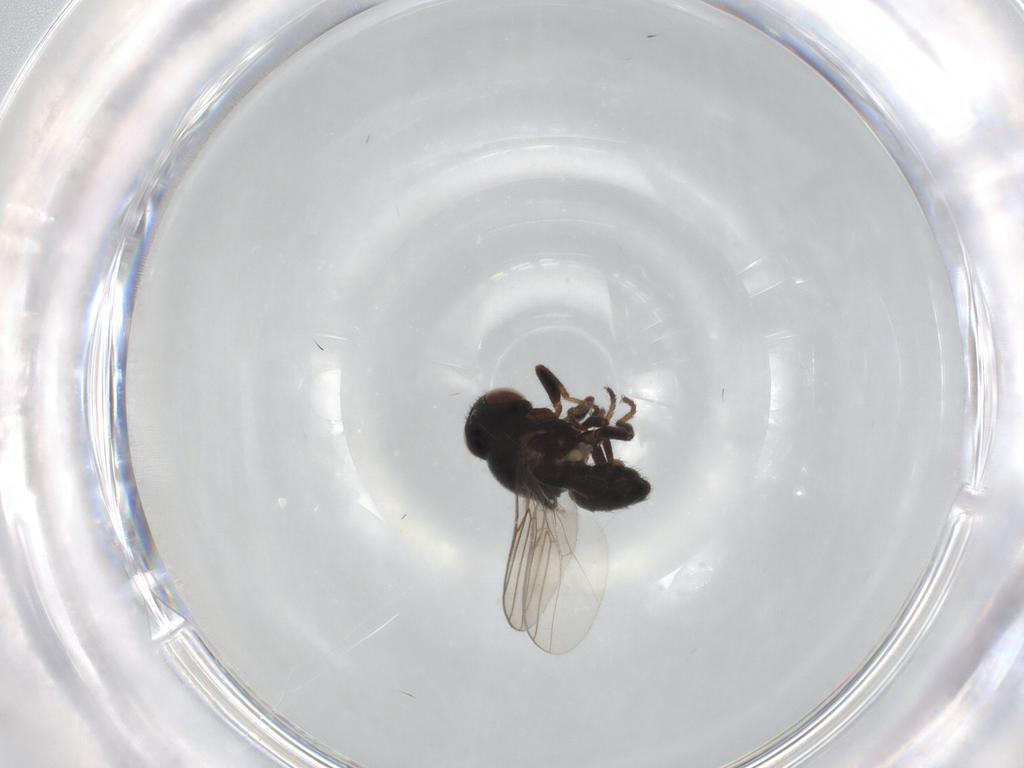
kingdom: Animalia
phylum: Arthropoda
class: Insecta
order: Diptera
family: Chloropidae
